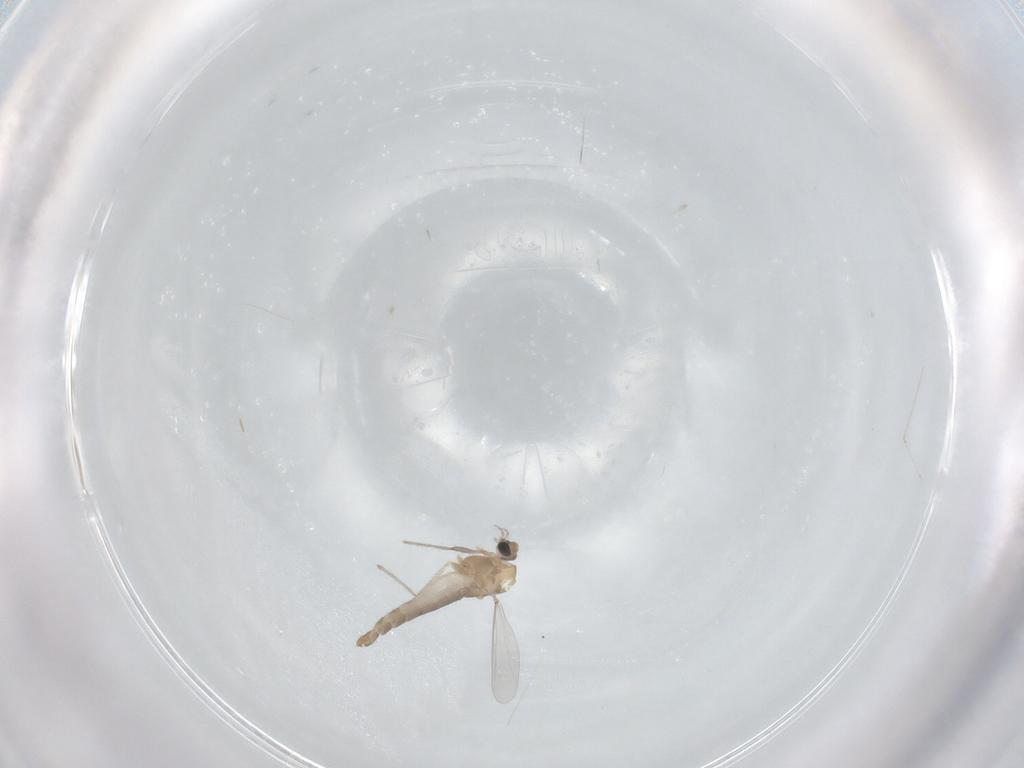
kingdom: Animalia
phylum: Arthropoda
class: Insecta
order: Diptera
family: Chironomidae
